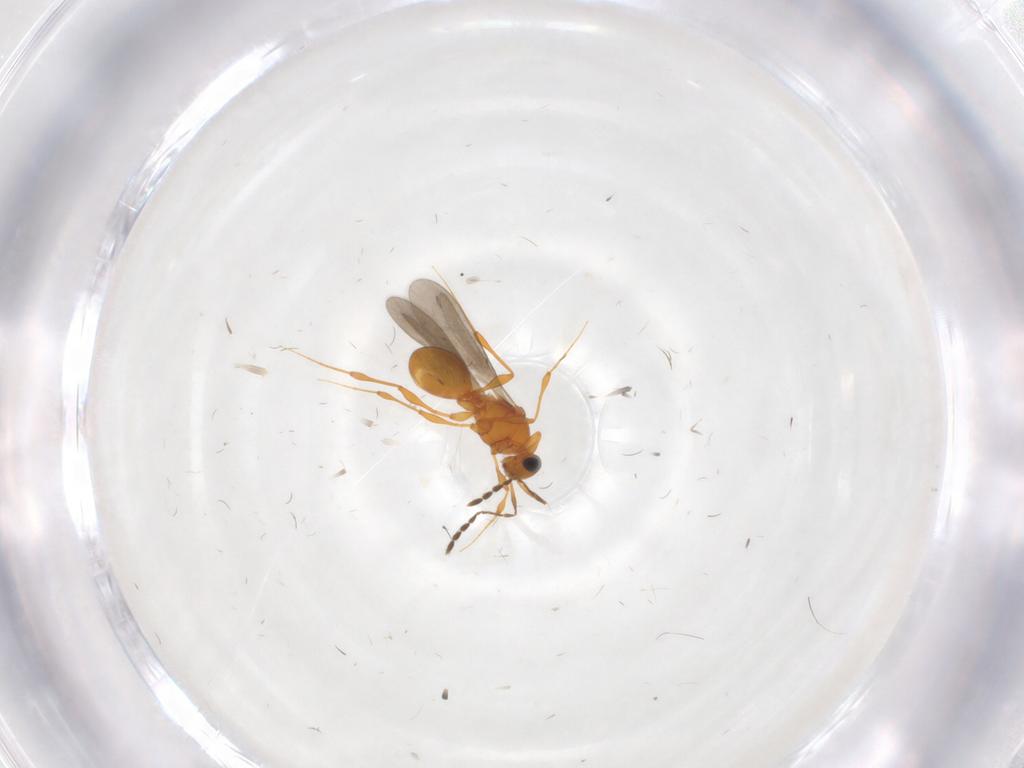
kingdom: Animalia
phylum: Arthropoda
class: Insecta
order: Hymenoptera
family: Platygastridae
